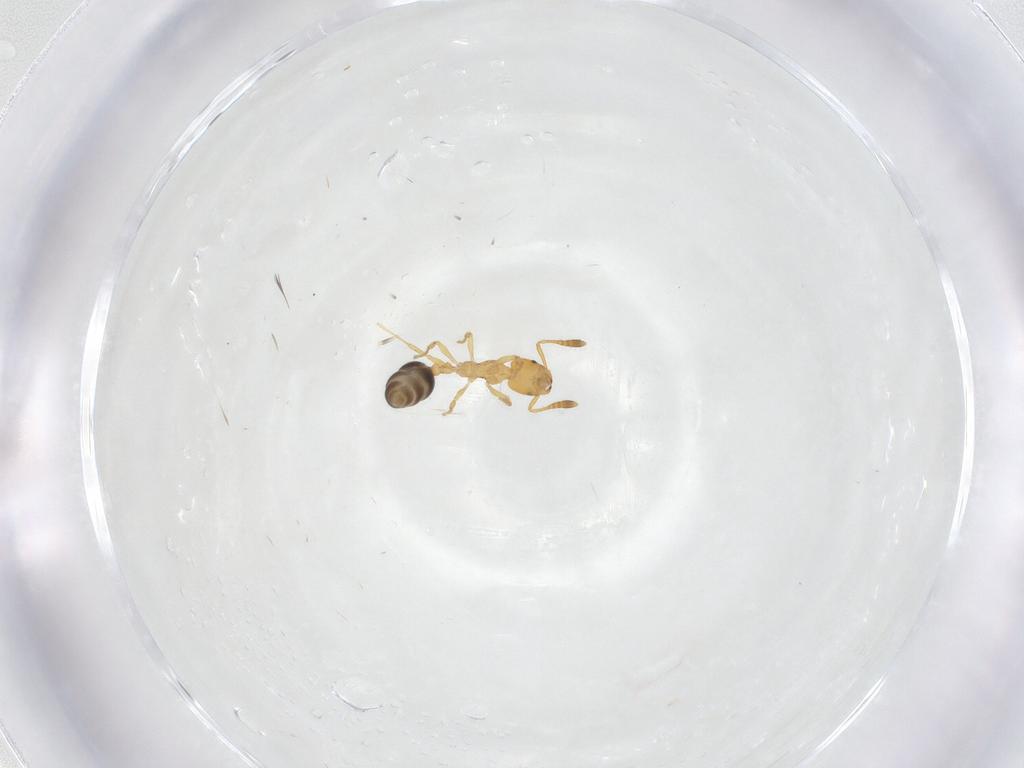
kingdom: Animalia
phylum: Arthropoda
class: Insecta
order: Hymenoptera
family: Formicidae
